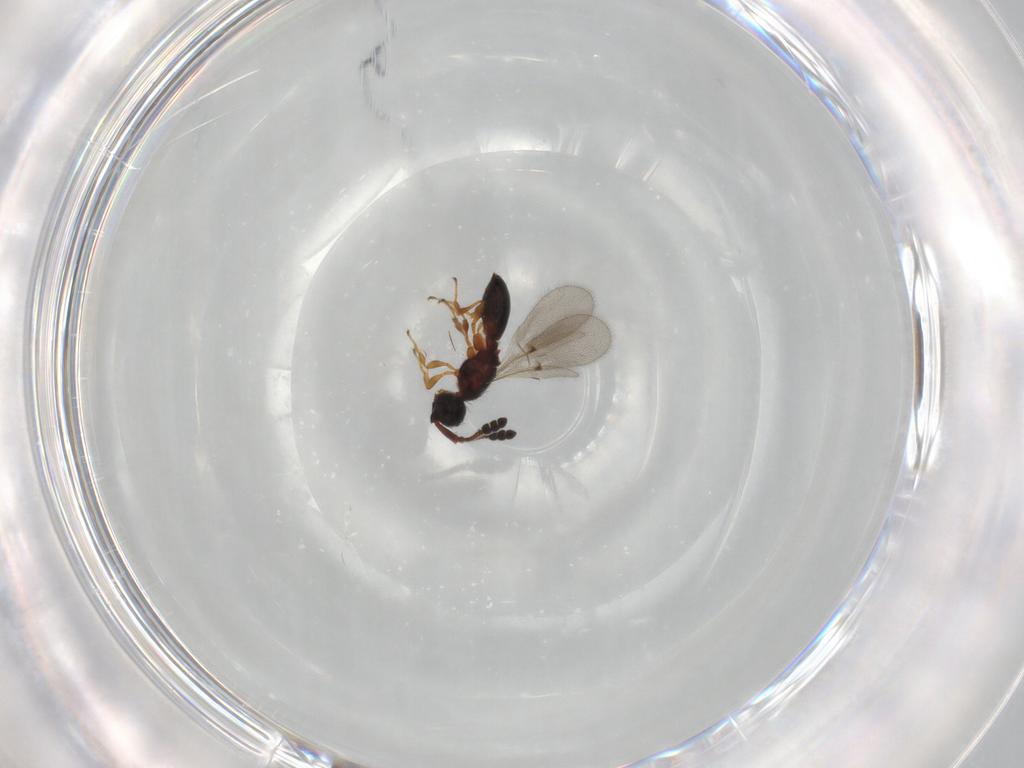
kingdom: Animalia
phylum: Arthropoda
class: Insecta
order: Hymenoptera
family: Diapriidae
